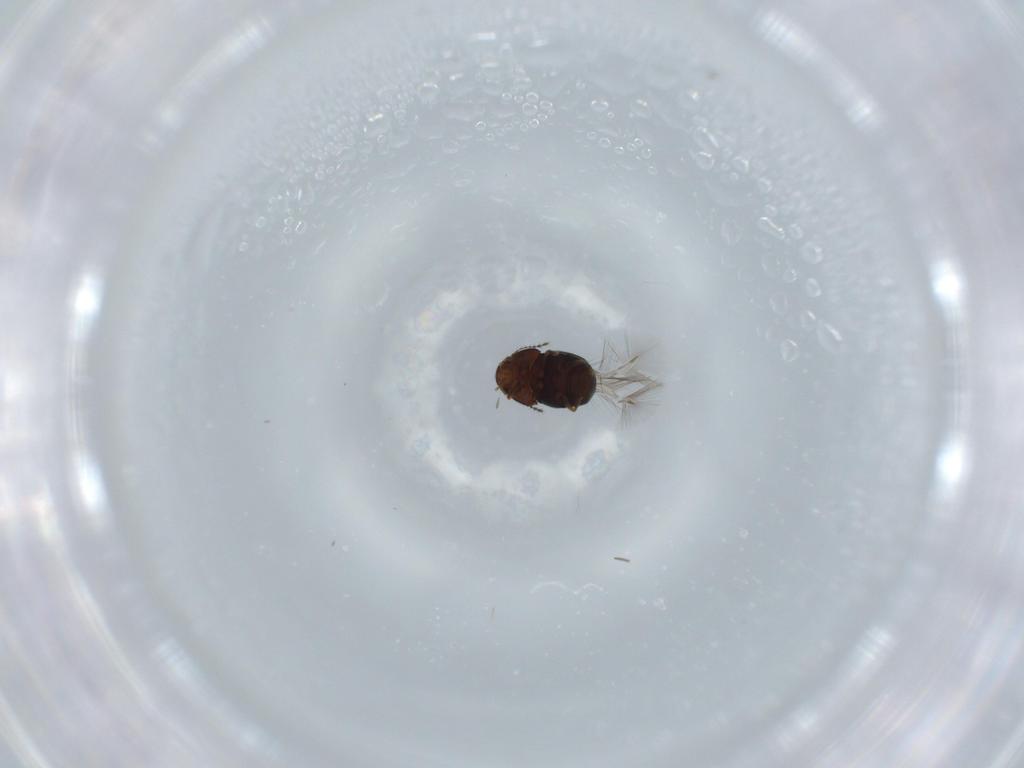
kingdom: Animalia
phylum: Arthropoda
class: Insecta
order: Coleoptera
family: Ptiliidae
